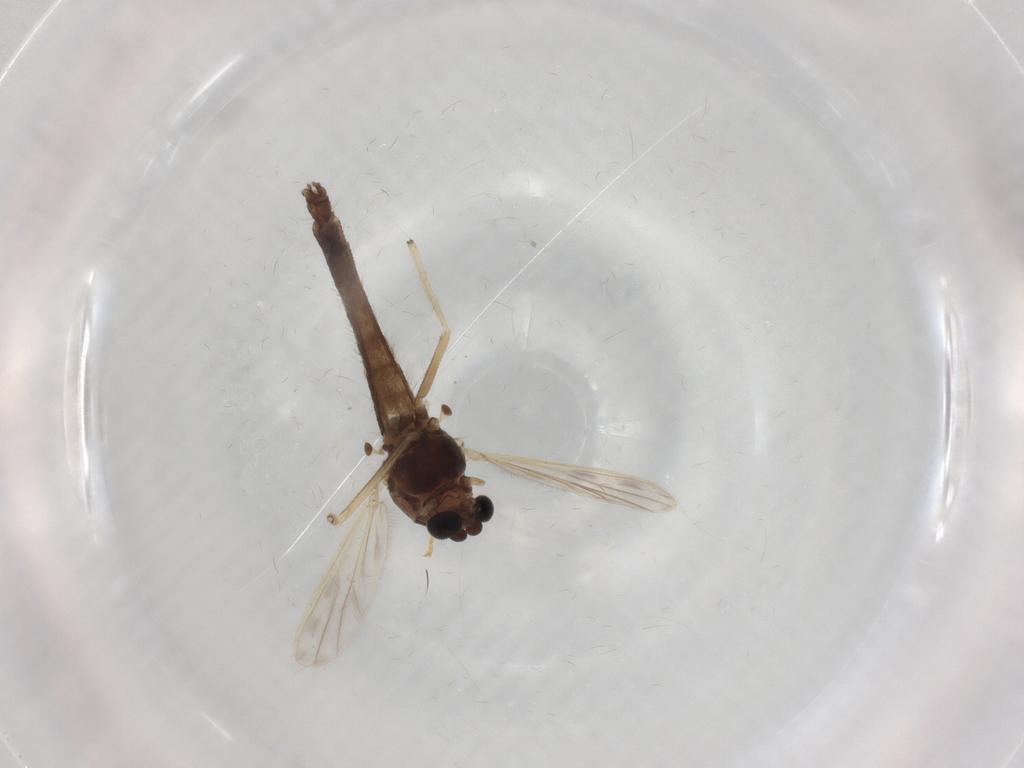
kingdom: Animalia
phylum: Arthropoda
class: Insecta
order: Diptera
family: Chironomidae
